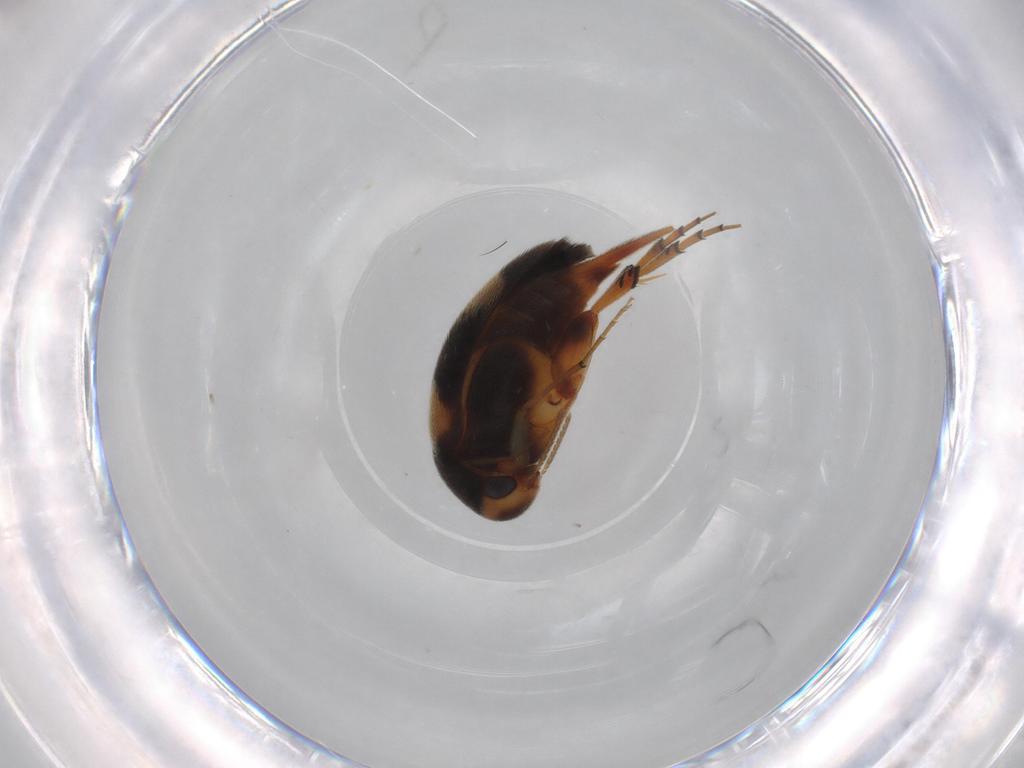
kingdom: Animalia
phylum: Arthropoda
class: Insecta
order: Coleoptera
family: Mordellidae
